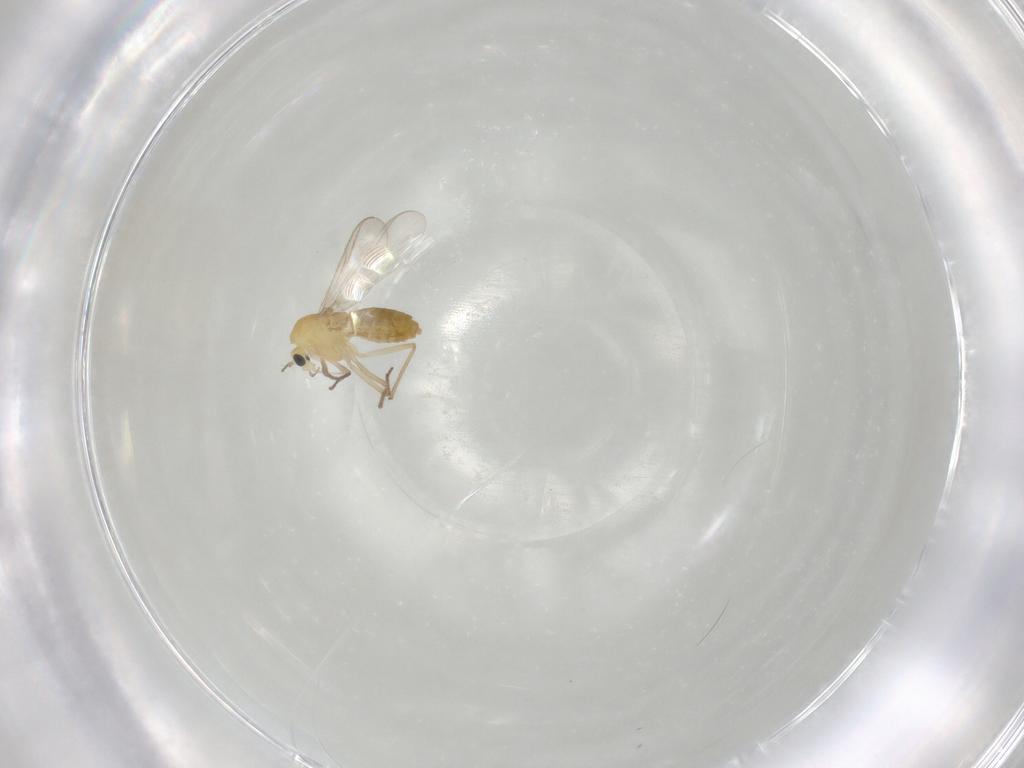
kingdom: Animalia
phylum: Arthropoda
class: Insecta
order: Diptera
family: Chironomidae
